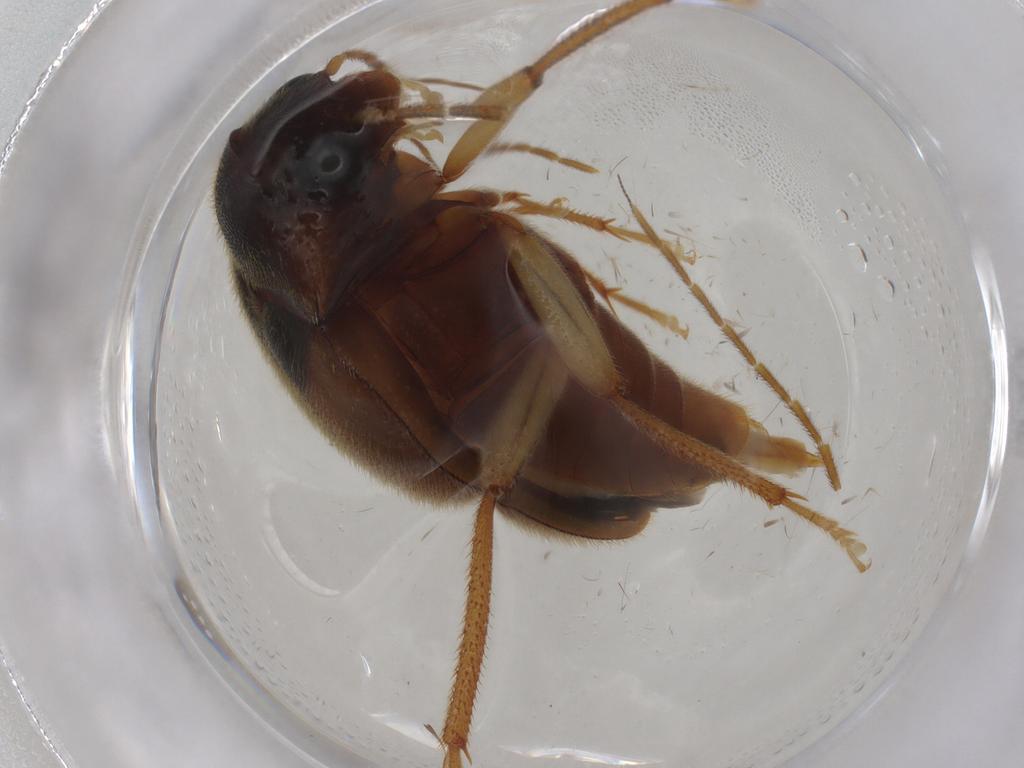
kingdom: Animalia
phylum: Arthropoda
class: Insecta
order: Coleoptera
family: Ptilodactylidae
